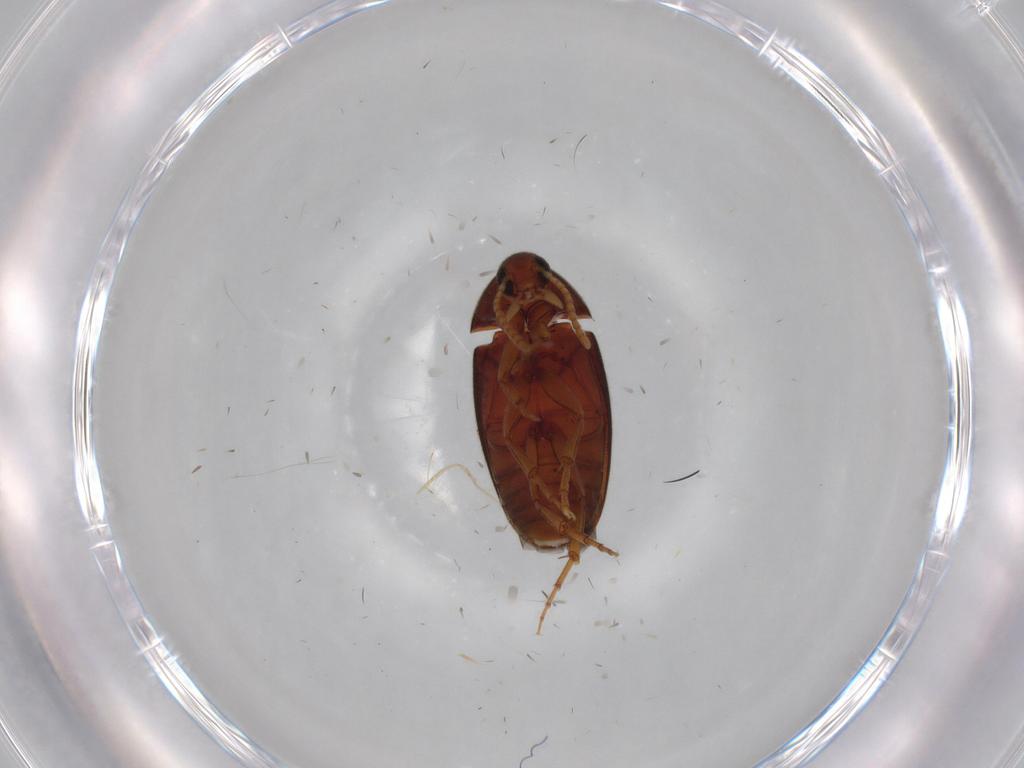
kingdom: Animalia
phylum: Arthropoda
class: Insecta
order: Coleoptera
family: Scraptiidae
